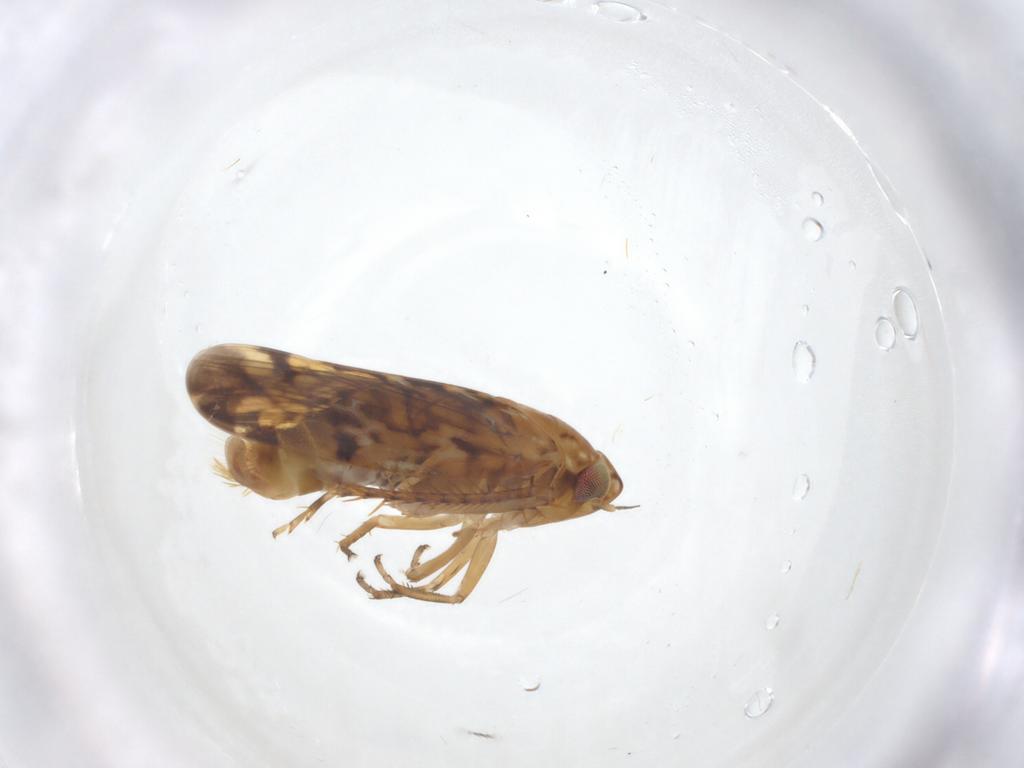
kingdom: Animalia
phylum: Arthropoda
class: Insecta
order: Hemiptera
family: Cicadellidae
